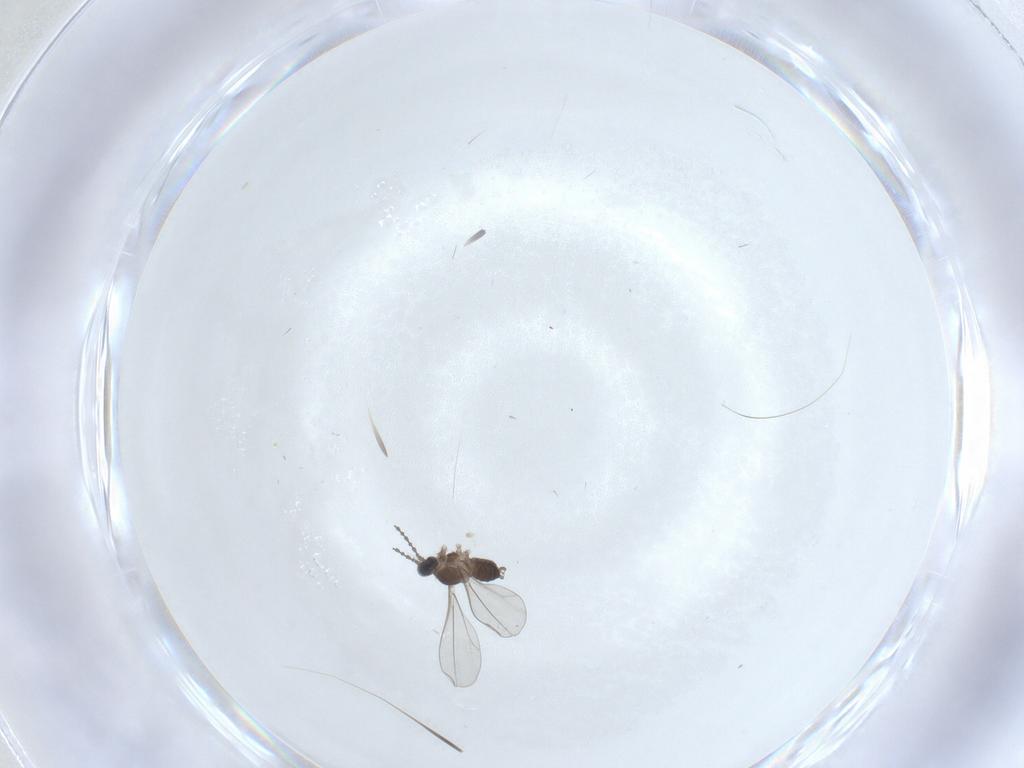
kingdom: Animalia
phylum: Arthropoda
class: Insecta
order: Diptera
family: Cecidomyiidae
